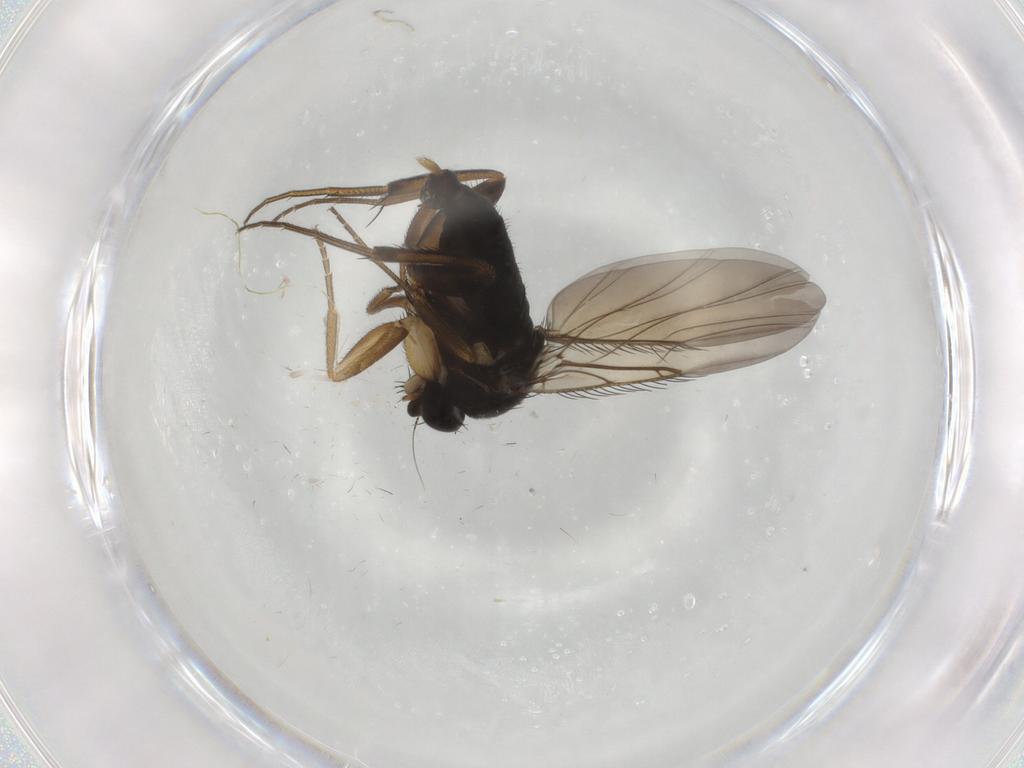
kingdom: Animalia
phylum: Arthropoda
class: Insecta
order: Diptera
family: Phoridae
